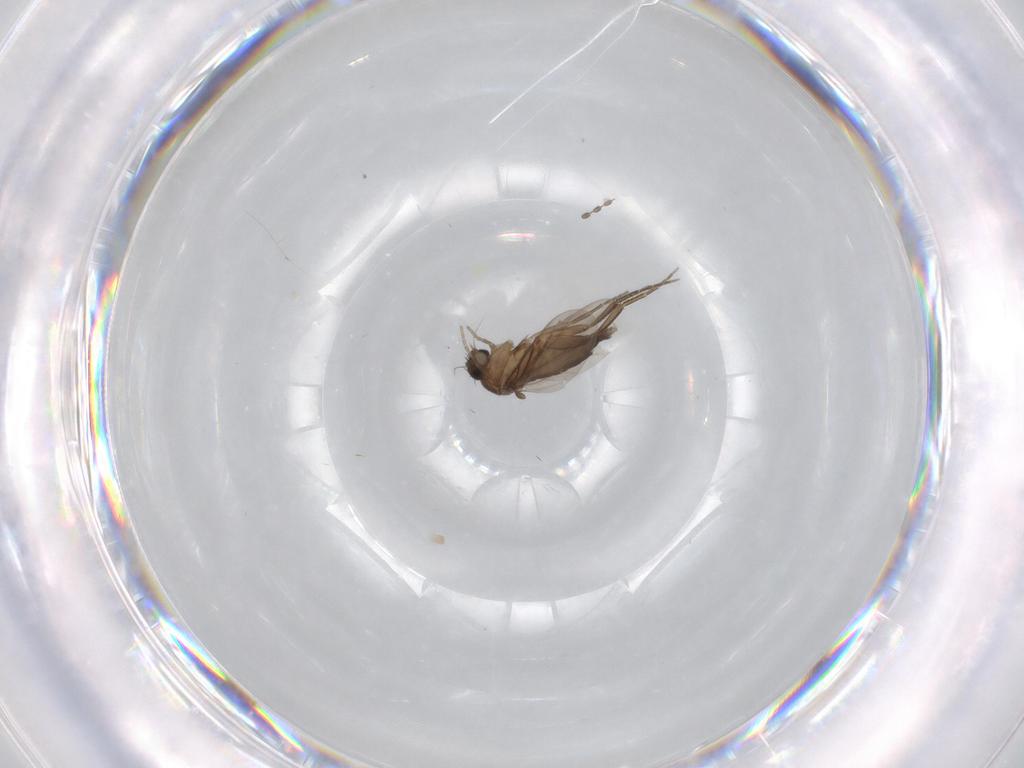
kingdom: Animalia
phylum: Arthropoda
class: Insecta
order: Diptera
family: Phoridae
